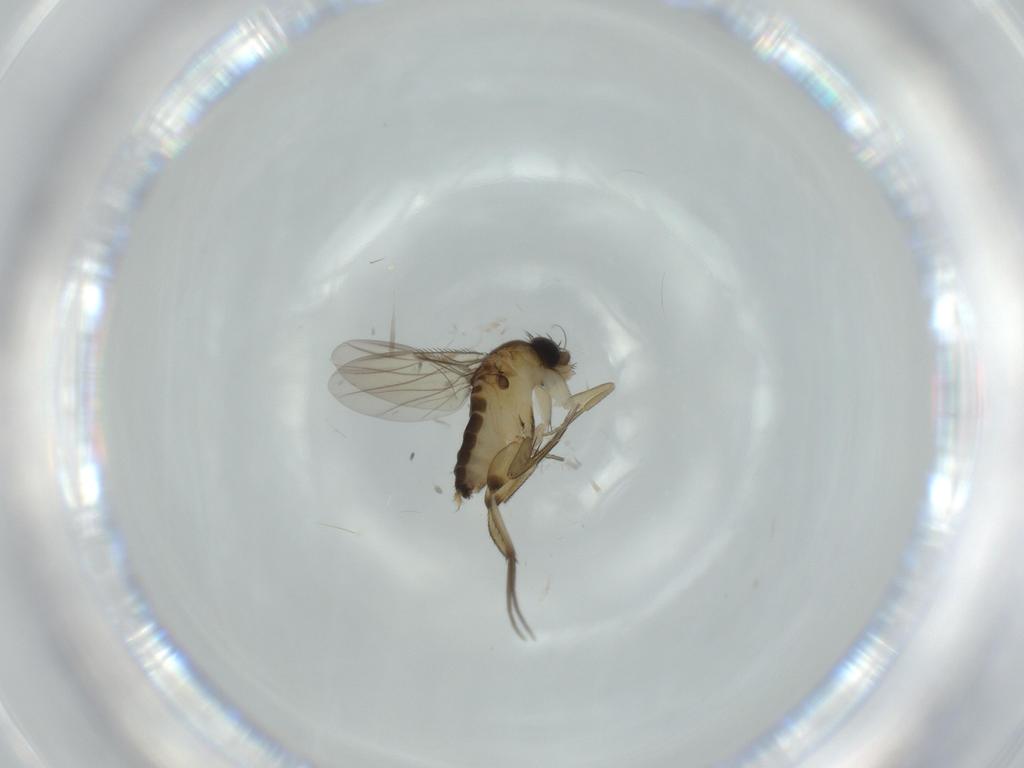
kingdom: Animalia
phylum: Arthropoda
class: Insecta
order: Diptera
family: Phoridae
